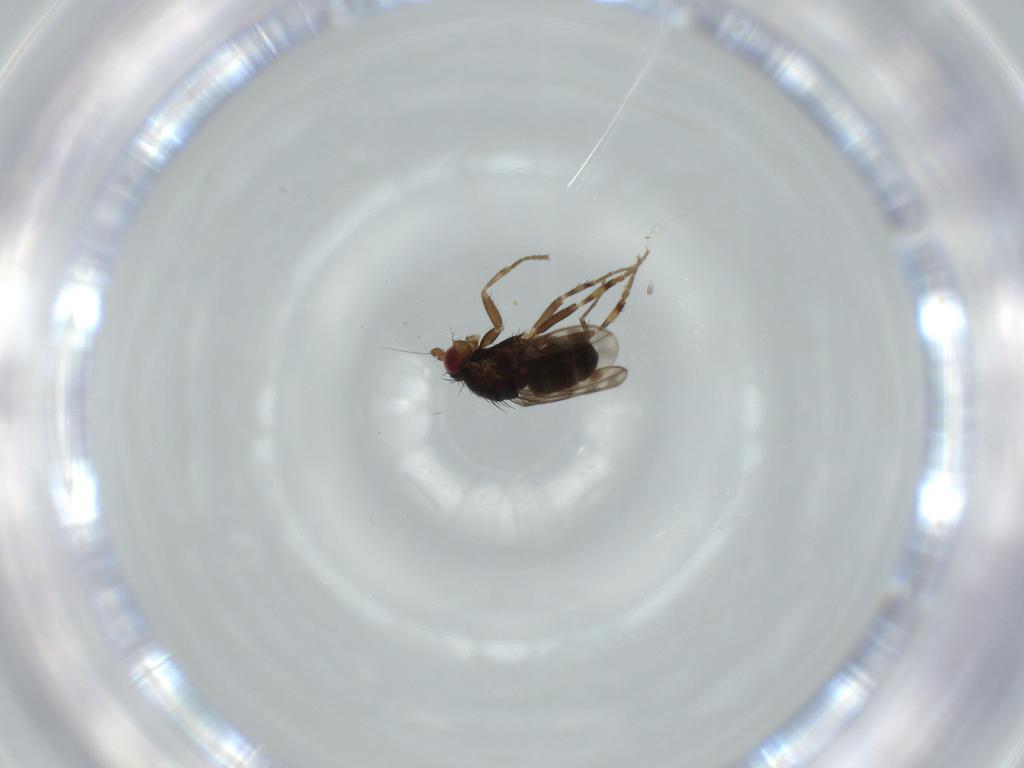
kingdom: Animalia
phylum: Arthropoda
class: Insecta
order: Diptera
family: Sphaeroceridae
